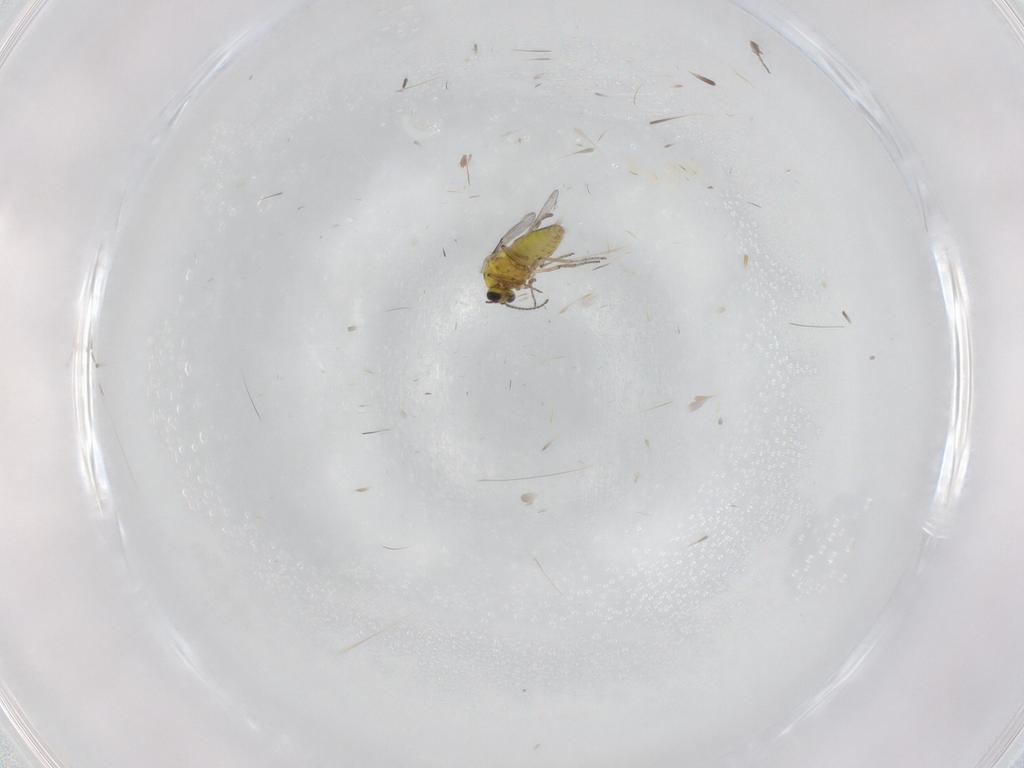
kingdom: Animalia
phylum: Arthropoda
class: Insecta
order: Diptera
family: Ceratopogonidae
